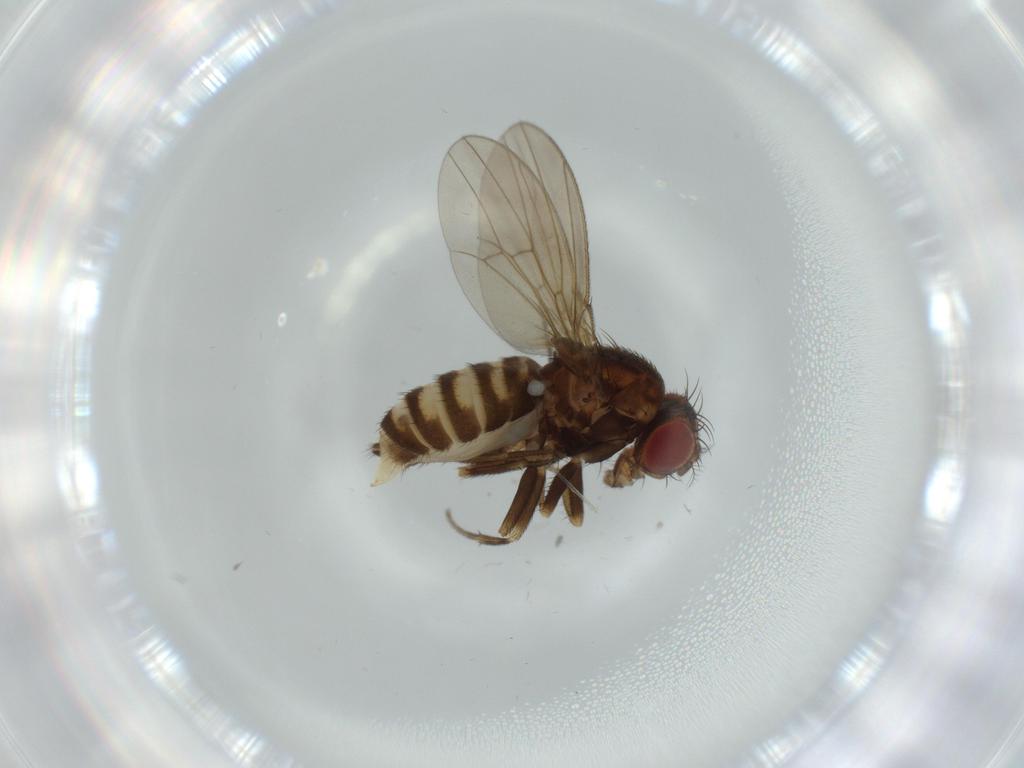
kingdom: Animalia
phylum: Arthropoda
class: Insecta
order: Diptera
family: Drosophilidae
